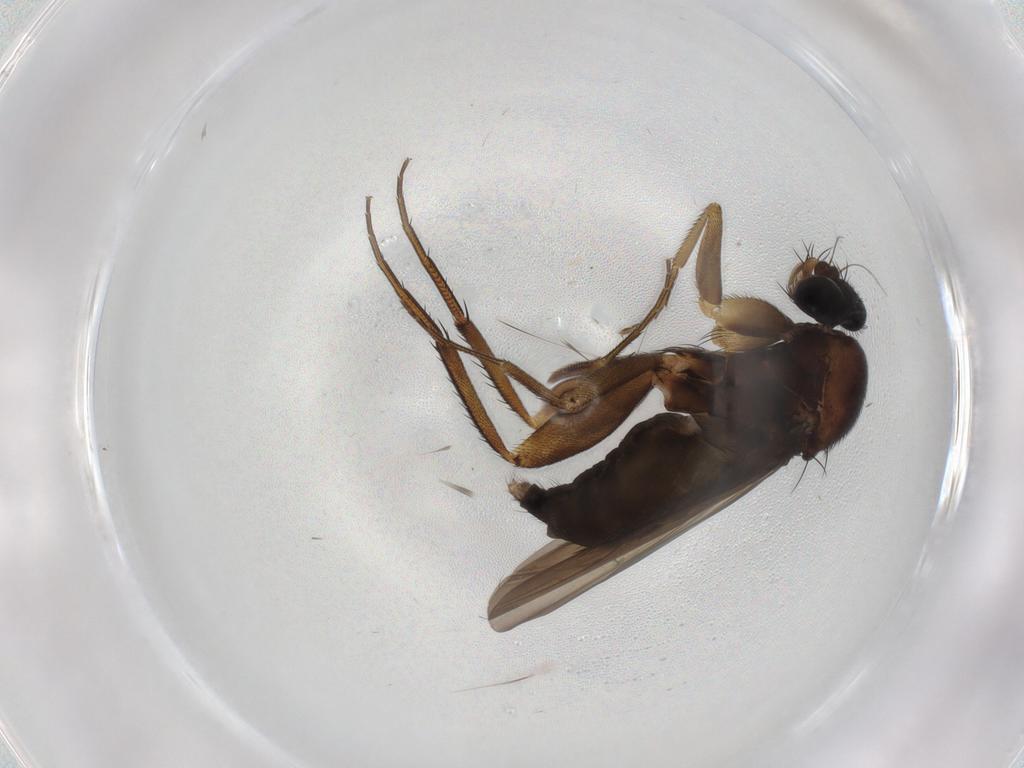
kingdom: Animalia
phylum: Arthropoda
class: Insecta
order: Diptera
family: Phoridae
